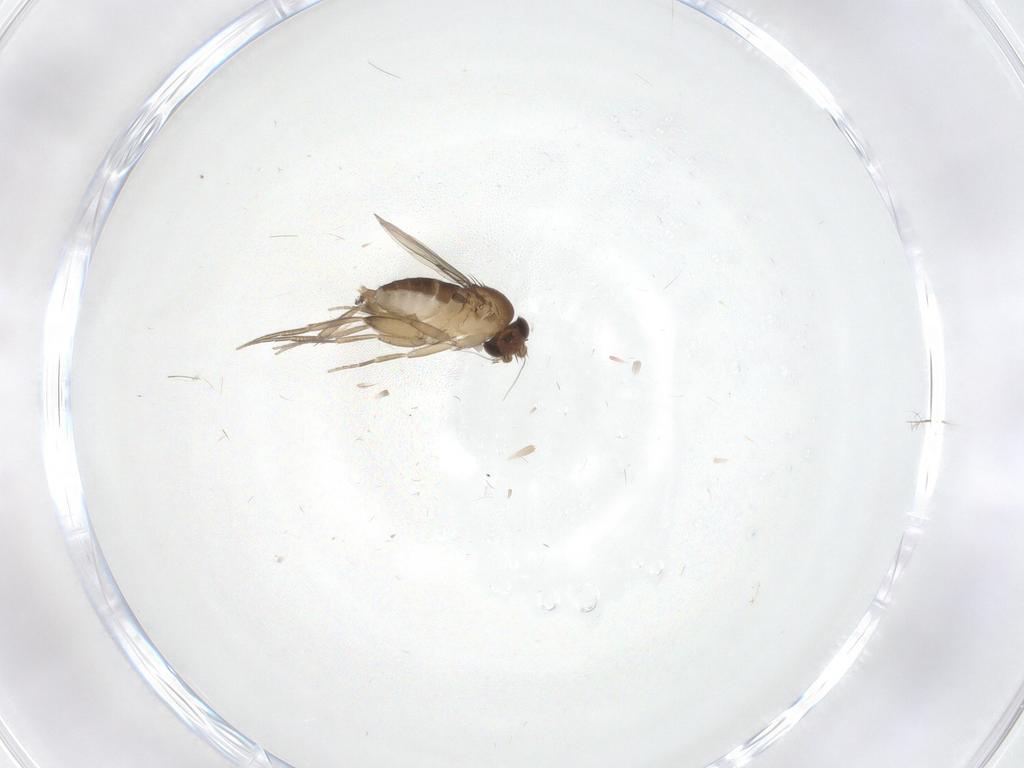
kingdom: Animalia
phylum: Arthropoda
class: Insecta
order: Diptera
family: Phoridae
